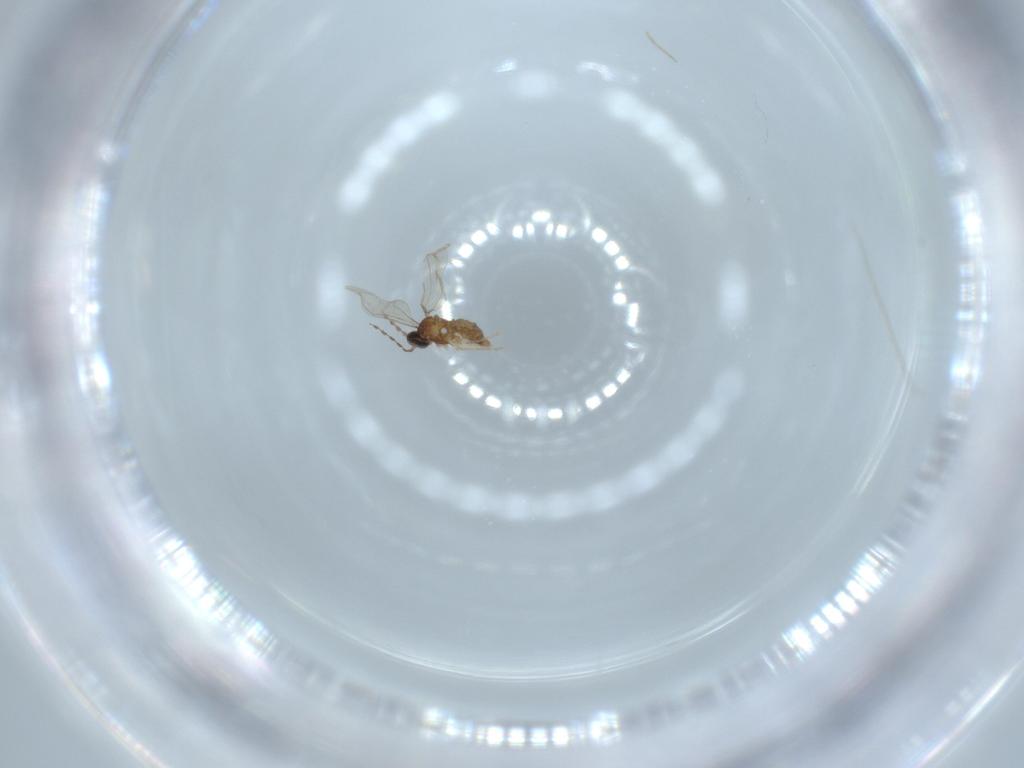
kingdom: Animalia
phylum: Arthropoda
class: Insecta
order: Diptera
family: Cecidomyiidae
